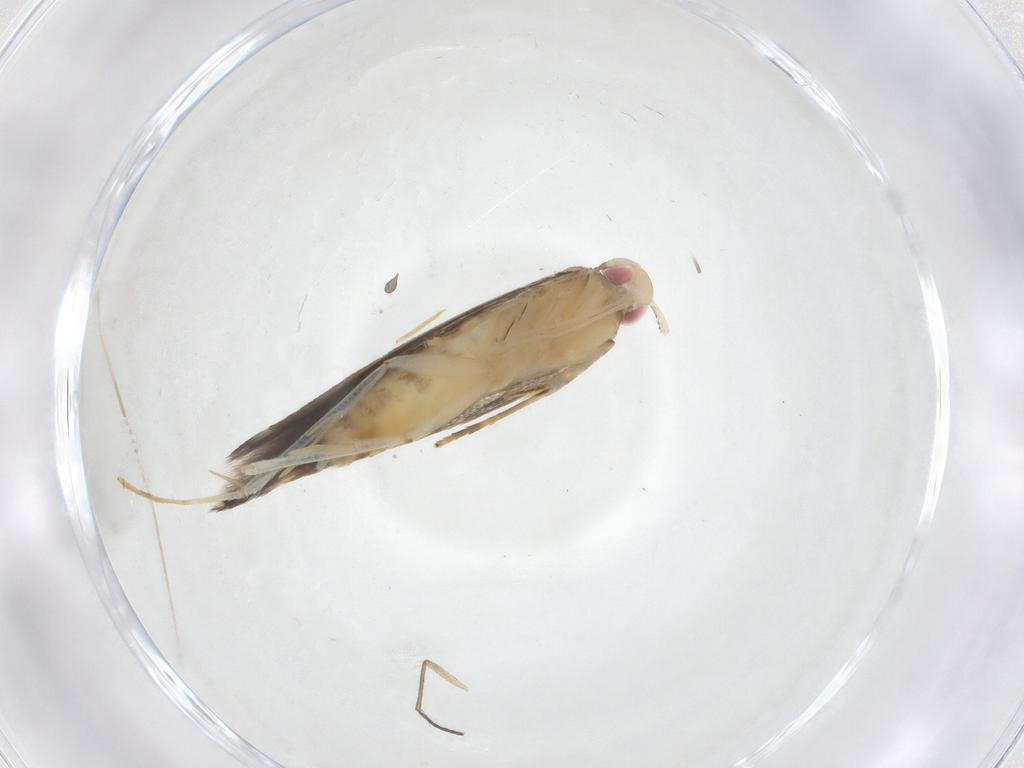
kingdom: Animalia
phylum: Arthropoda
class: Insecta
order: Lepidoptera
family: Cosmopterigidae
